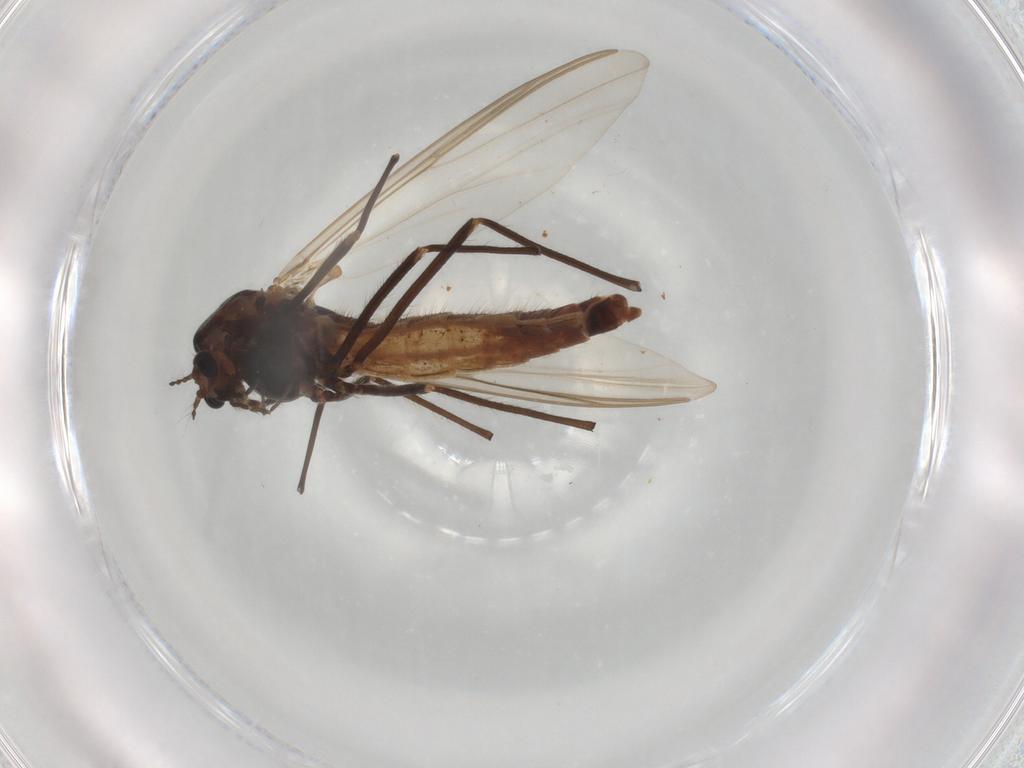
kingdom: Animalia
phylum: Arthropoda
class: Insecta
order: Diptera
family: Chironomidae
